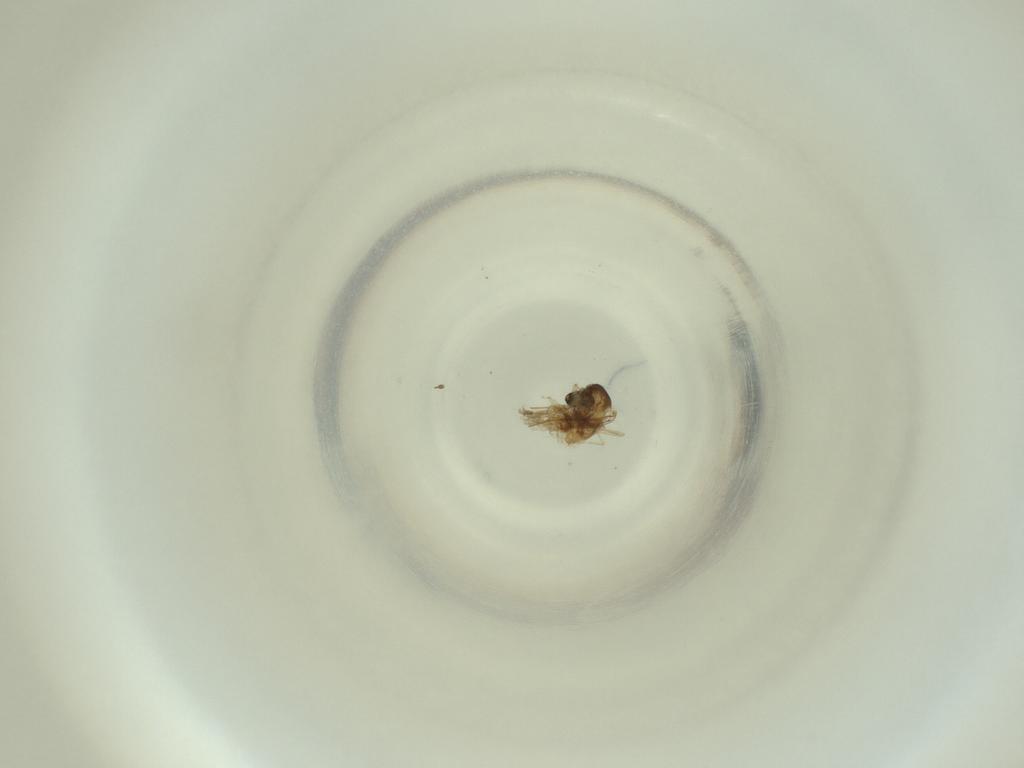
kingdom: Animalia
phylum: Arthropoda
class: Insecta
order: Diptera
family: Cecidomyiidae
